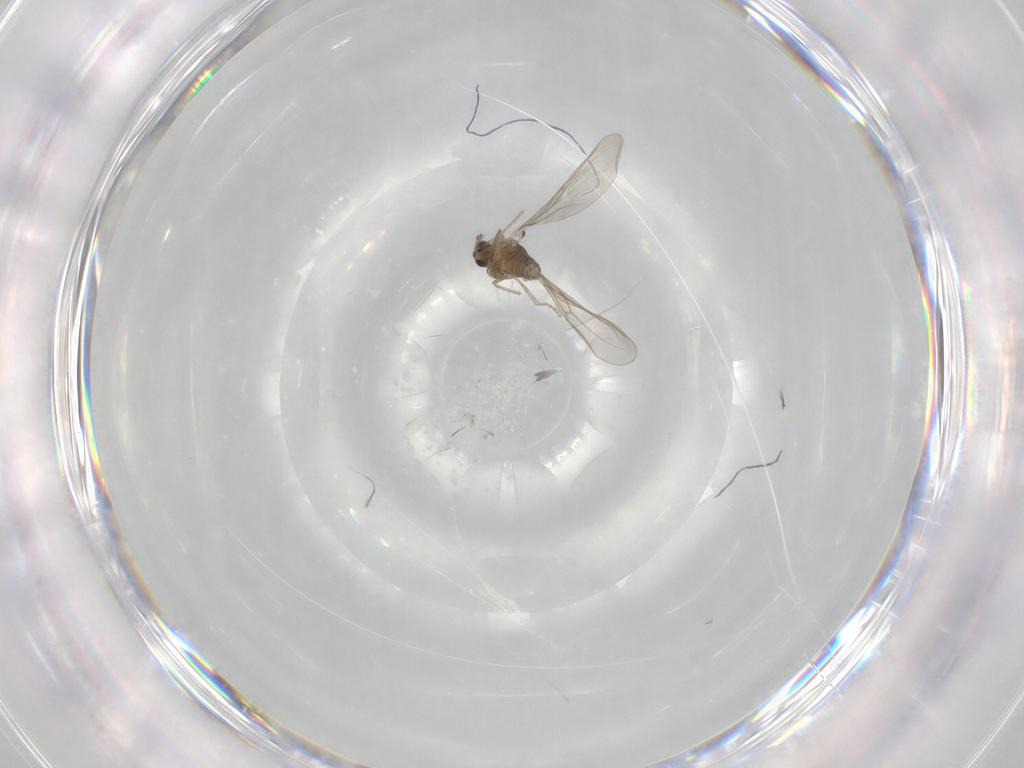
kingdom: Animalia
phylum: Arthropoda
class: Insecta
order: Diptera
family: Cecidomyiidae
